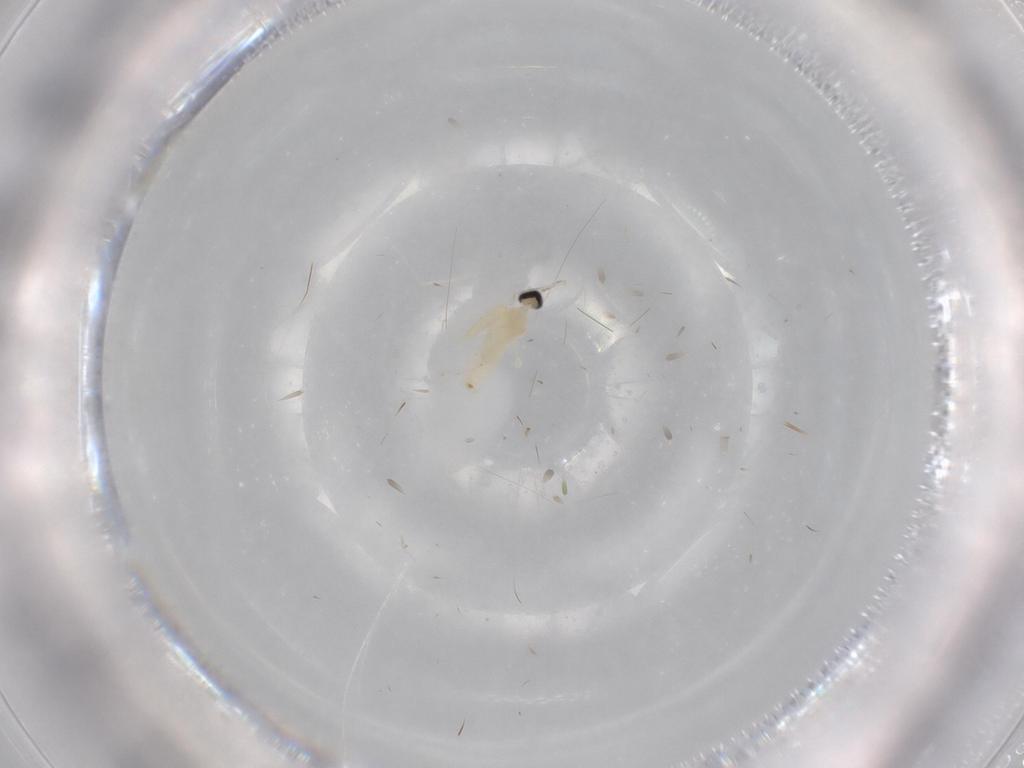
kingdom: Animalia
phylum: Arthropoda
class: Insecta
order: Diptera
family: Cecidomyiidae
